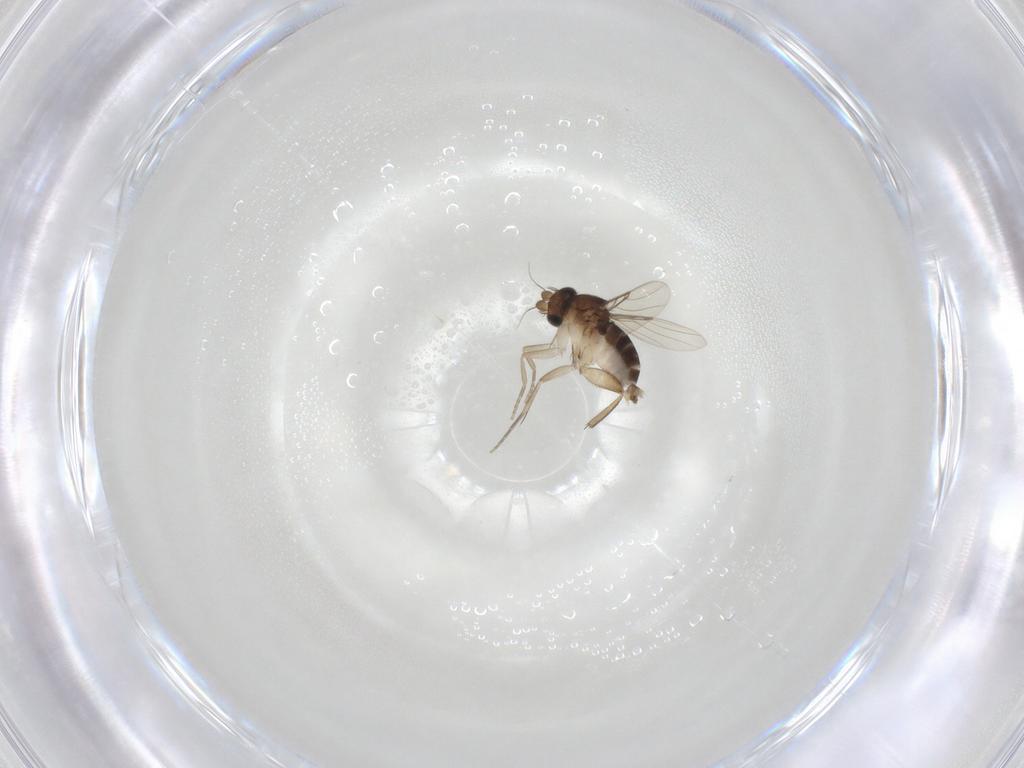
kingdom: Animalia
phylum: Arthropoda
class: Insecta
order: Diptera
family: Phoridae
